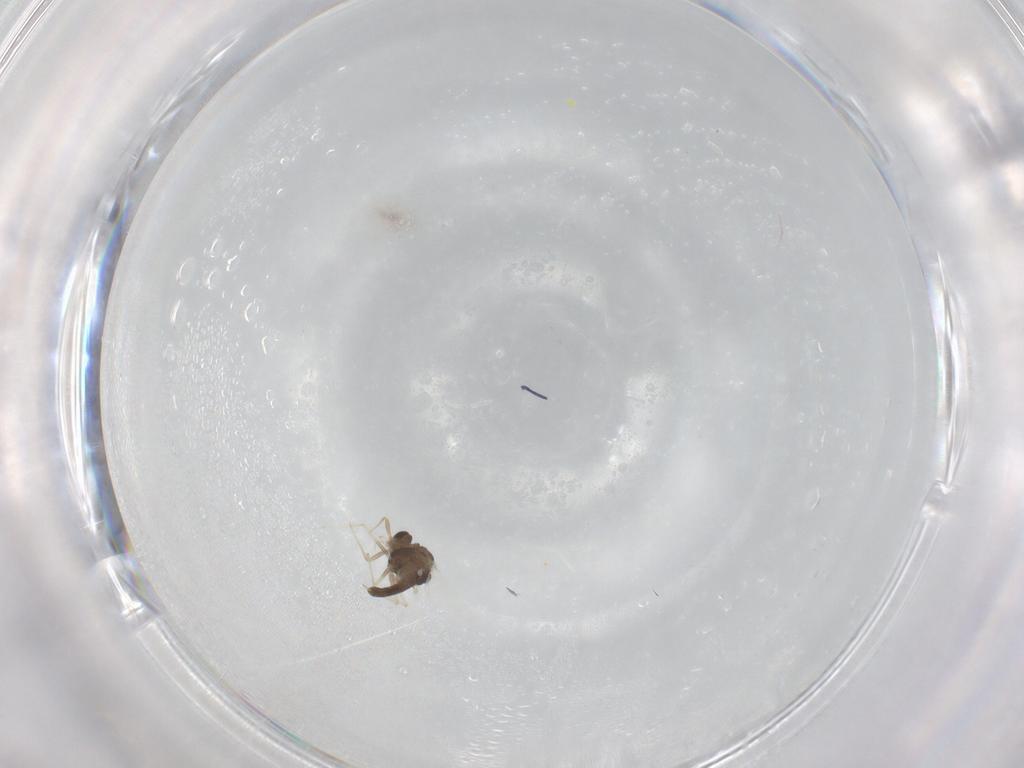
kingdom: Animalia
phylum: Arthropoda
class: Insecta
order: Diptera
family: Chironomidae
